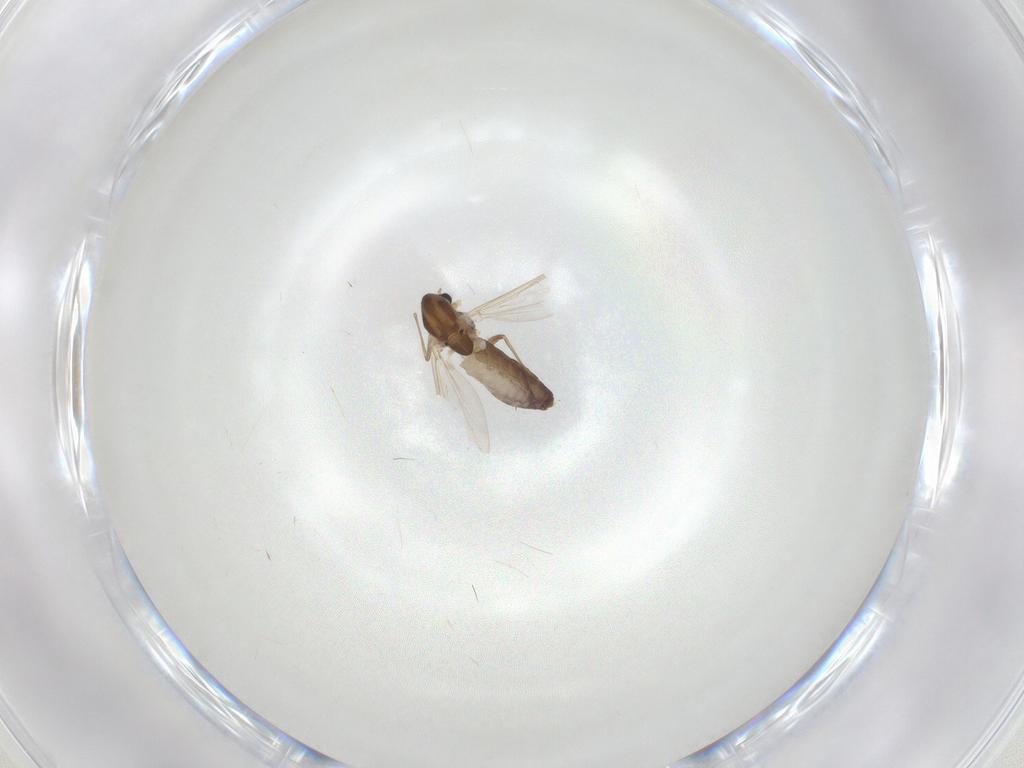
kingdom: Animalia
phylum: Arthropoda
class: Insecta
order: Diptera
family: Chironomidae
